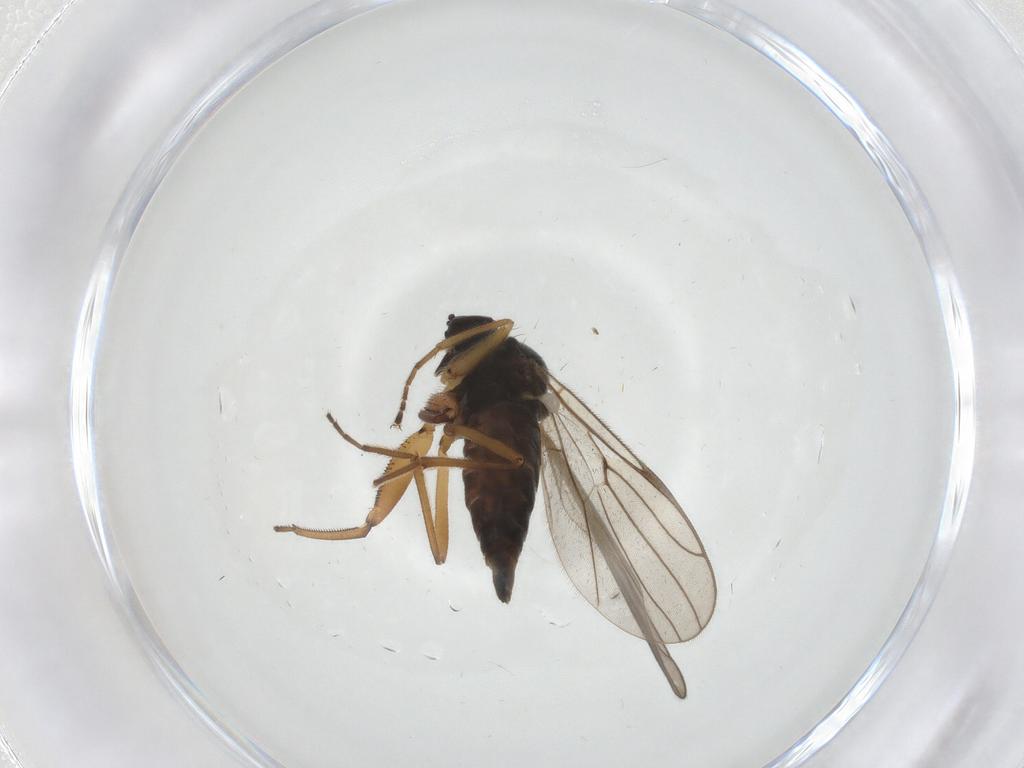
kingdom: Animalia
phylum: Arthropoda
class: Insecta
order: Diptera
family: Hybotidae
